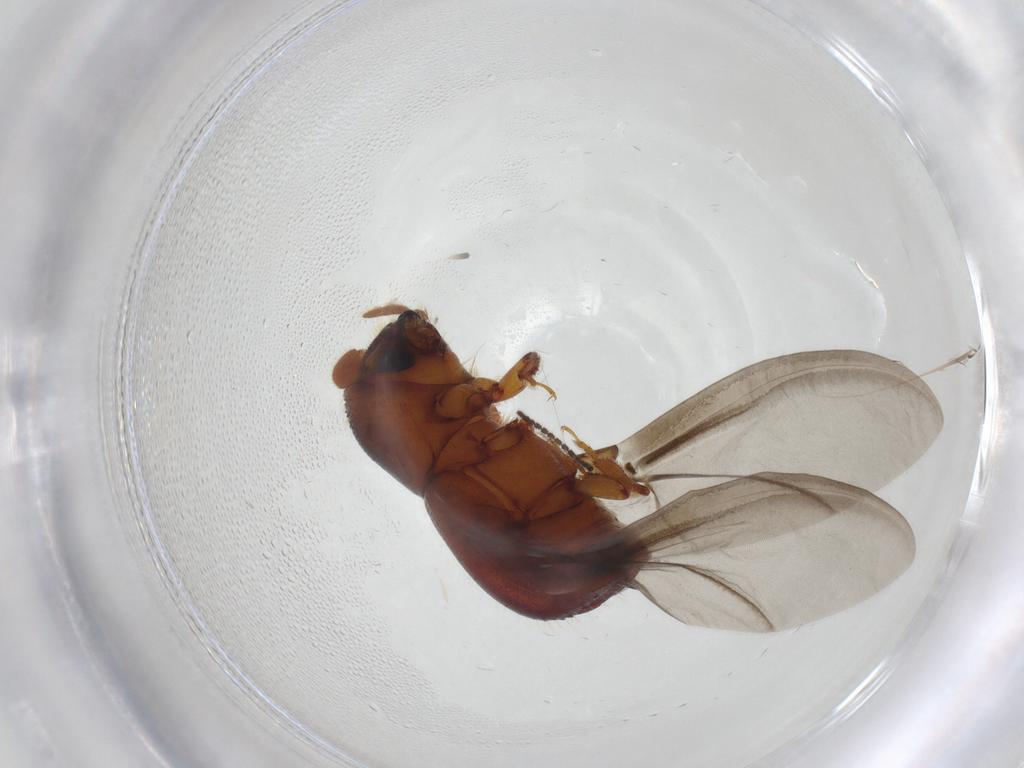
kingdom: Animalia
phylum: Arthropoda
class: Insecta
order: Coleoptera
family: Curculionidae
